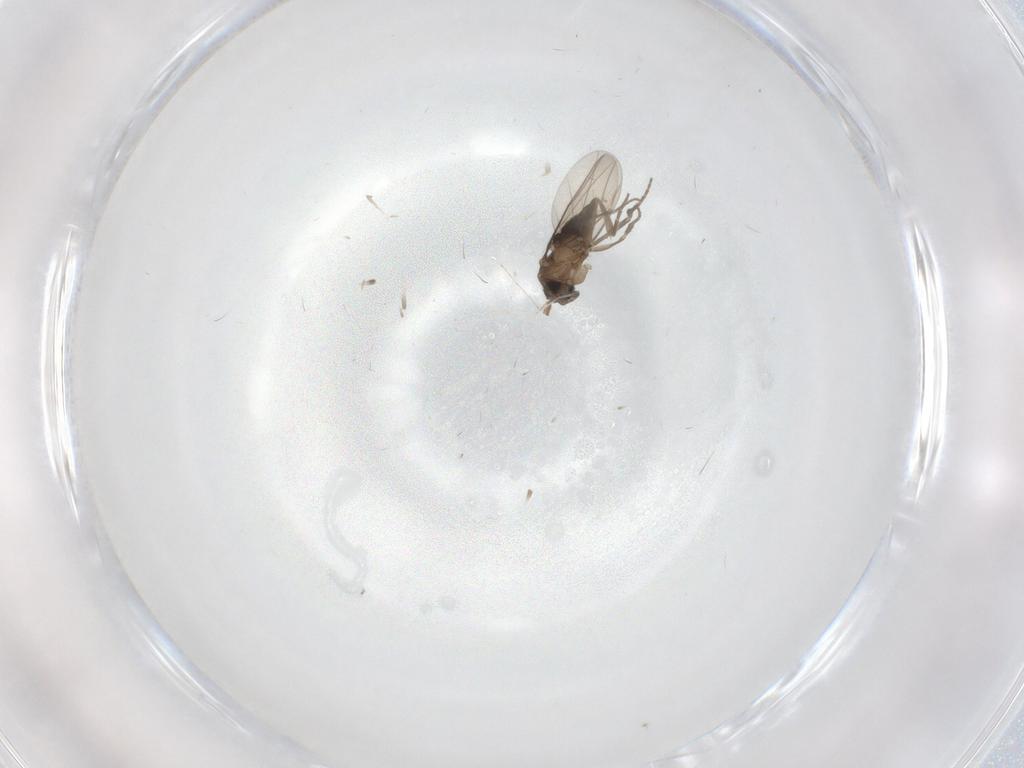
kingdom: Animalia
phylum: Arthropoda
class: Insecta
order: Diptera
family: Phoridae
